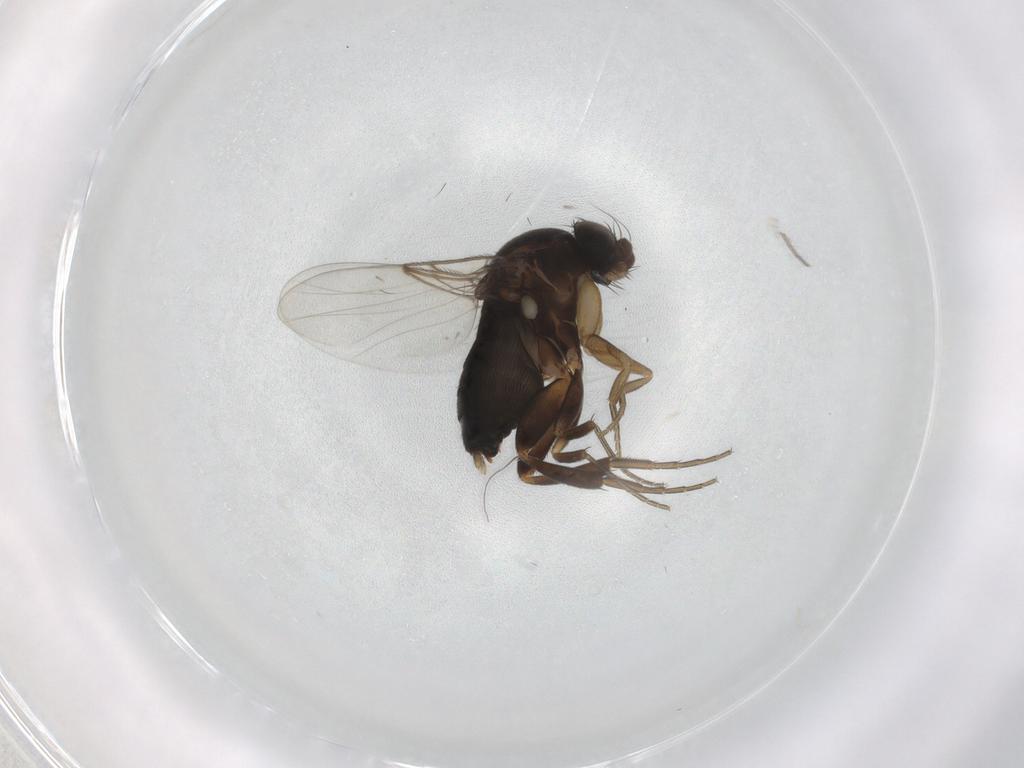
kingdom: Animalia
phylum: Arthropoda
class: Insecta
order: Diptera
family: Phoridae
